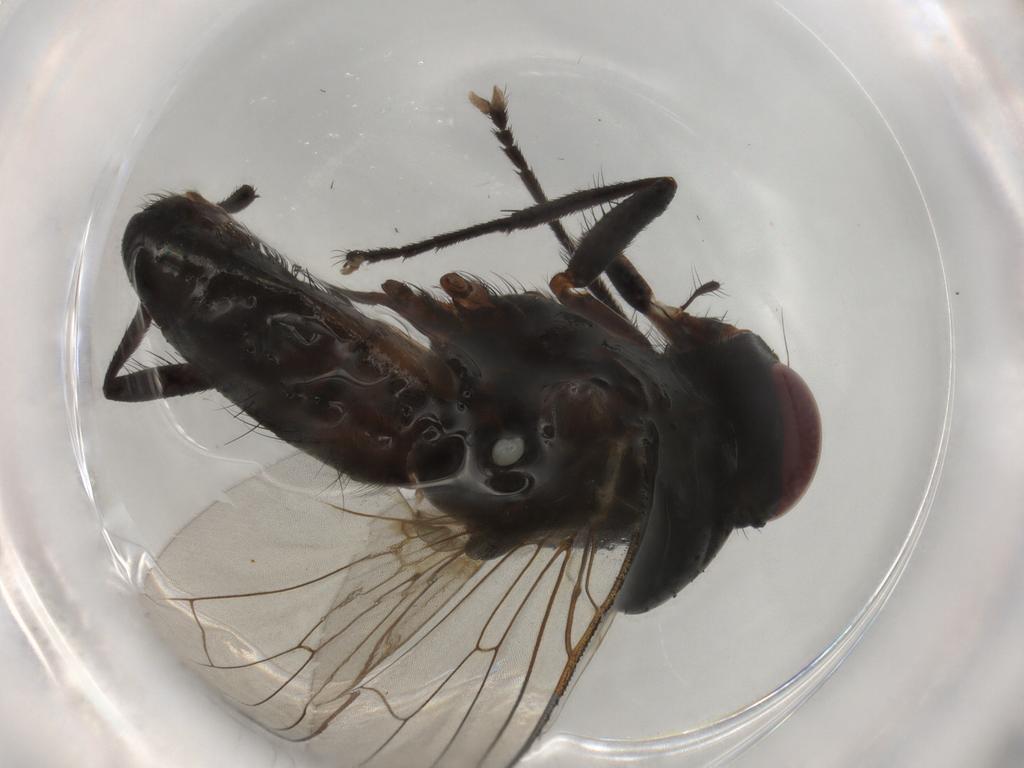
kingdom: Animalia
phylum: Arthropoda
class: Insecta
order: Diptera
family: Anthomyiidae
